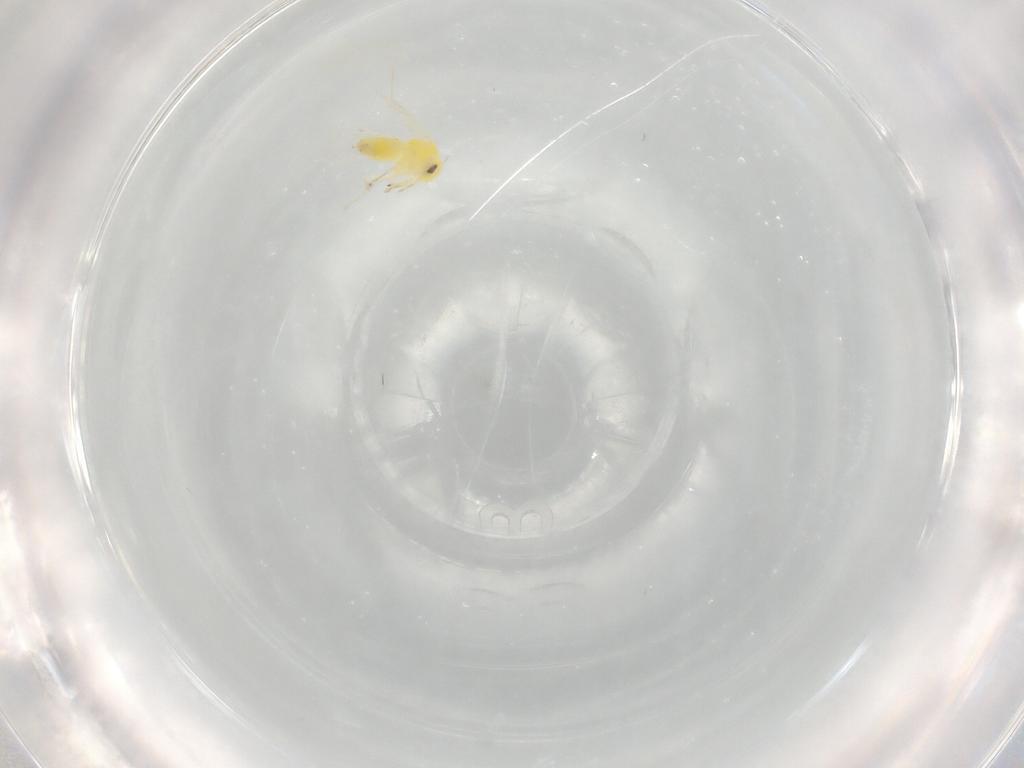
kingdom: Animalia
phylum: Arthropoda
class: Insecta
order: Hemiptera
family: Aleyrodidae
